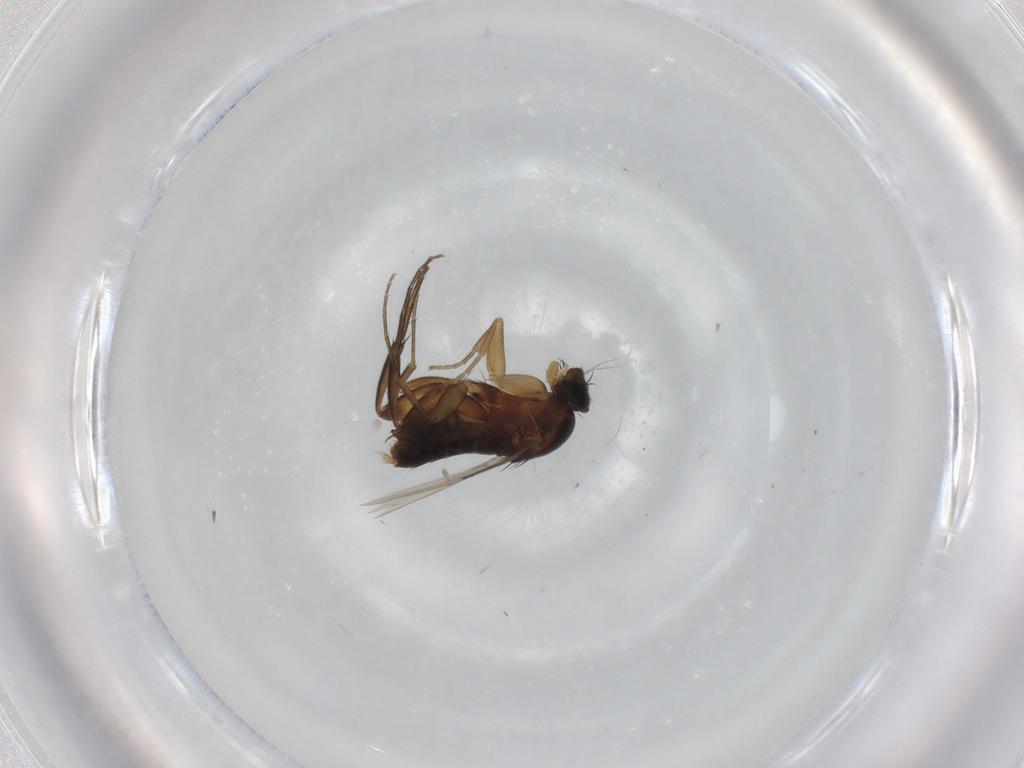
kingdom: Animalia
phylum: Arthropoda
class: Insecta
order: Diptera
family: Phoridae
